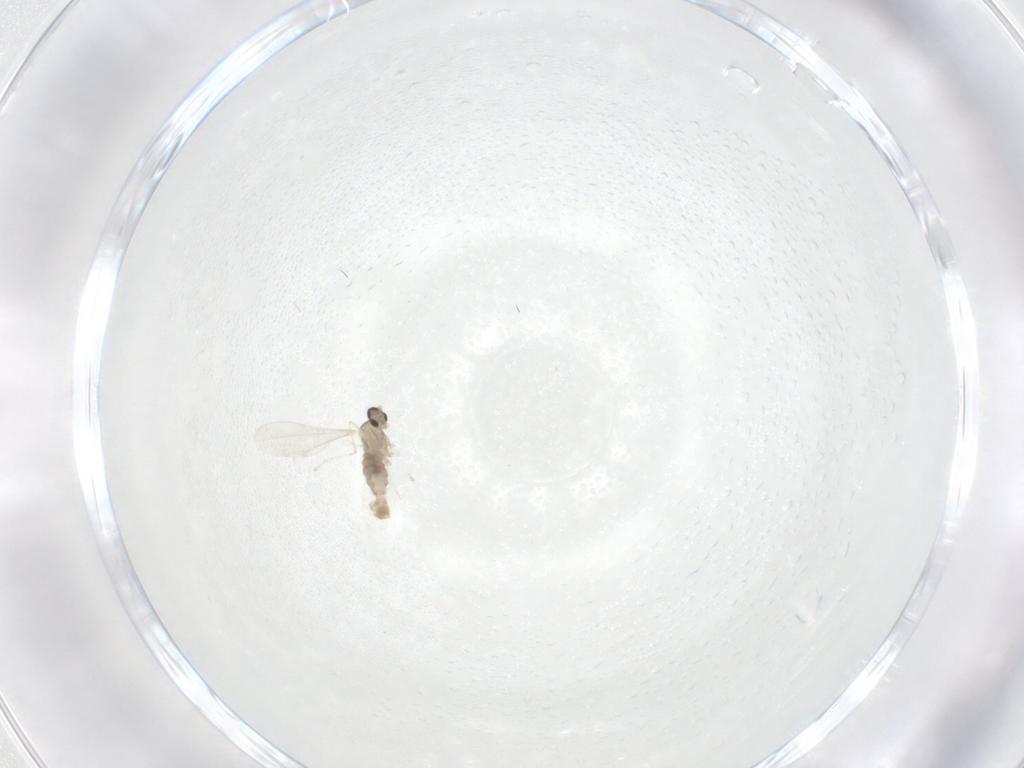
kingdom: Animalia
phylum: Arthropoda
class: Insecta
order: Diptera
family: Cecidomyiidae
